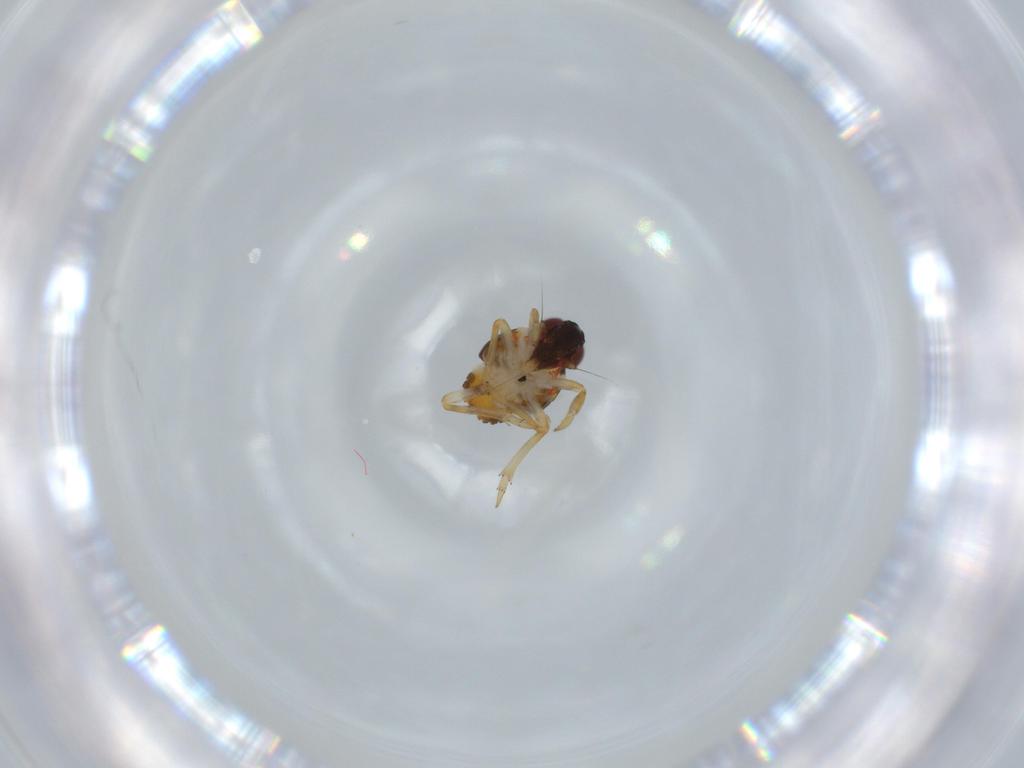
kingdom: Animalia
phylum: Arthropoda
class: Insecta
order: Hemiptera
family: Issidae
